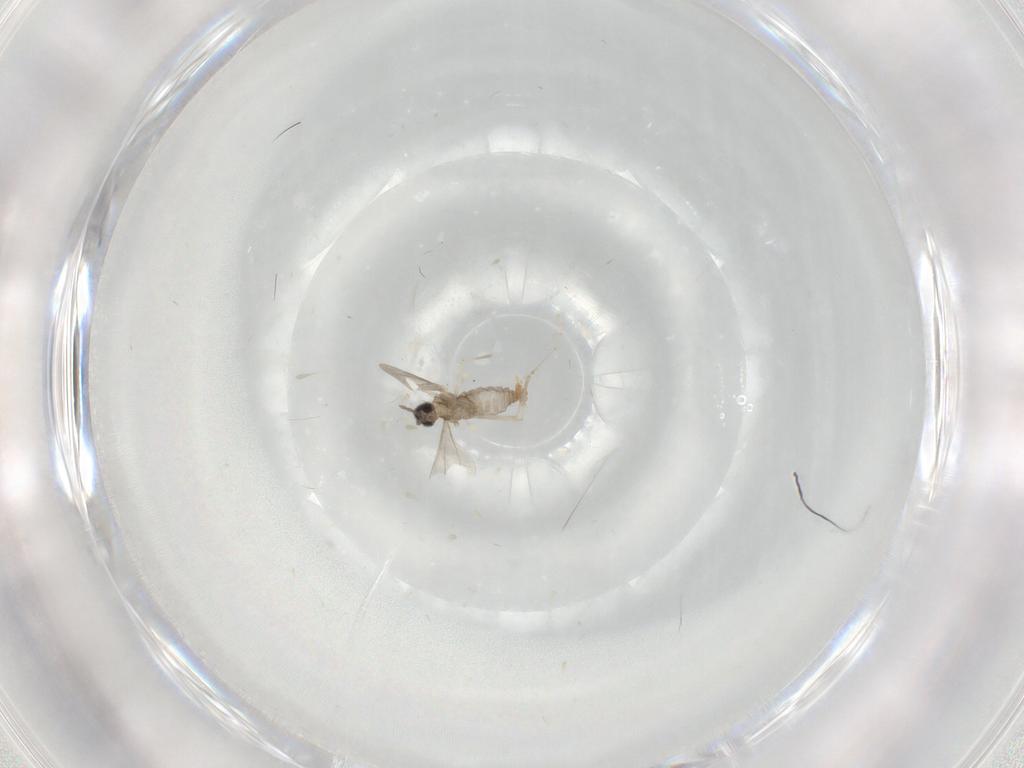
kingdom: Animalia
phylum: Arthropoda
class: Insecta
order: Diptera
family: Cecidomyiidae
